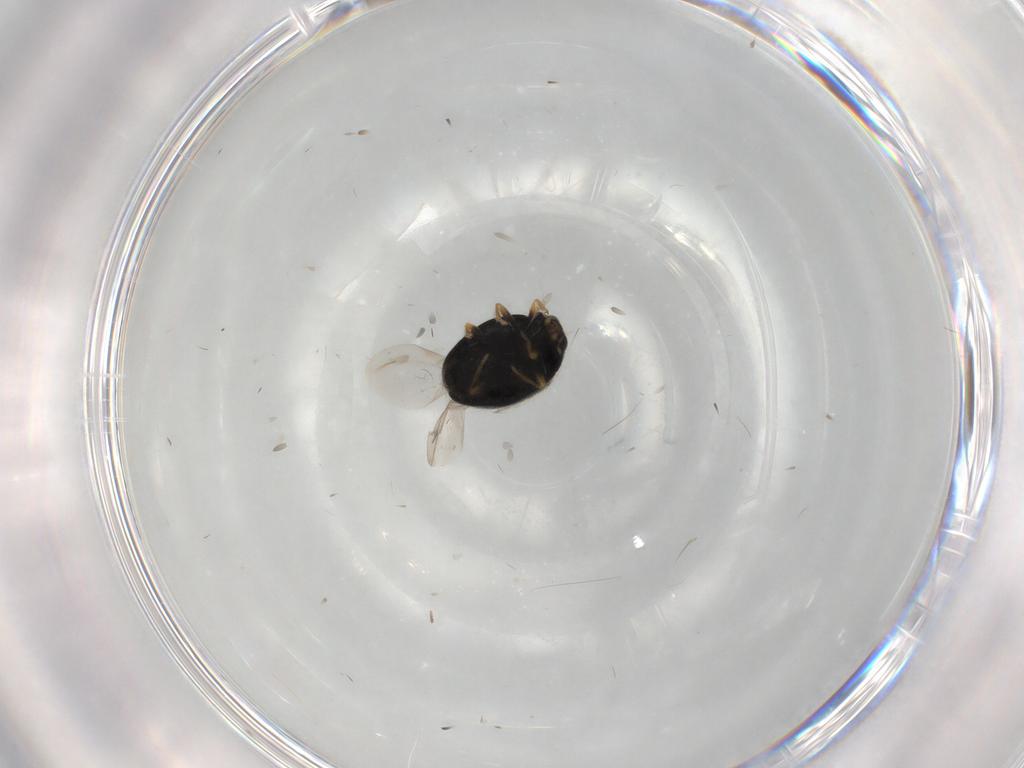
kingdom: Animalia
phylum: Arthropoda
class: Insecta
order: Coleoptera
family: Coccinellidae
